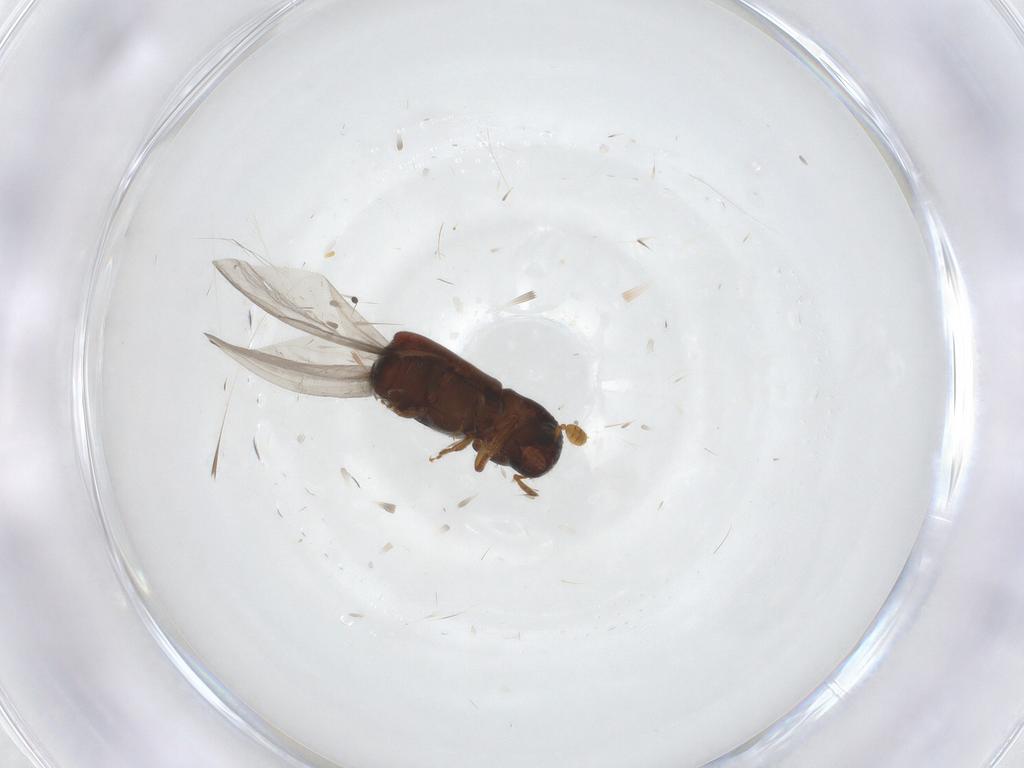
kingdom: Animalia
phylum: Arthropoda
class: Insecta
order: Coleoptera
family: Curculionidae
